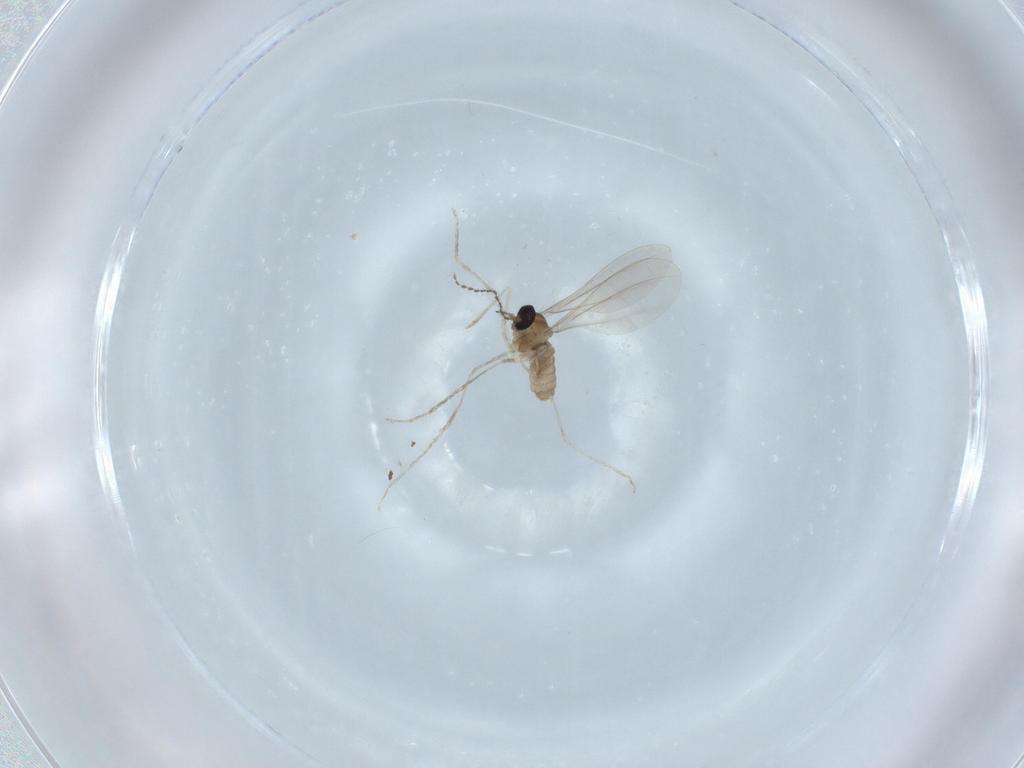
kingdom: Animalia
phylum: Arthropoda
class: Insecta
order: Diptera
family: Cecidomyiidae
